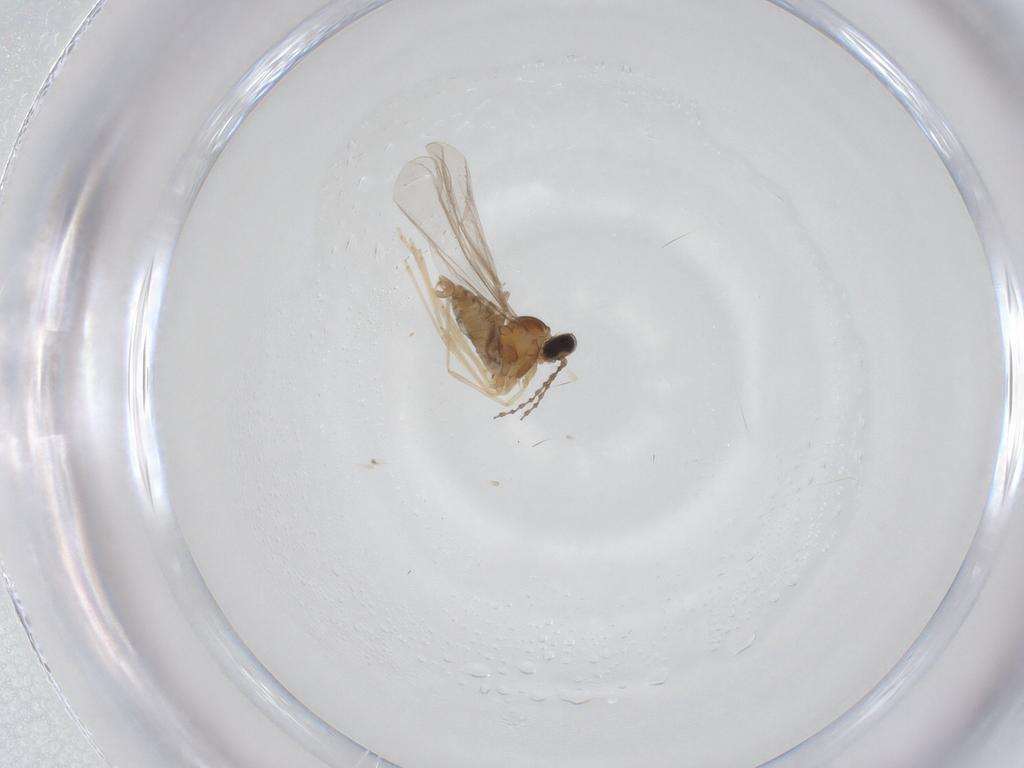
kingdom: Animalia
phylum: Arthropoda
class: Insecta
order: Diptera
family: Cecidomyiidae
